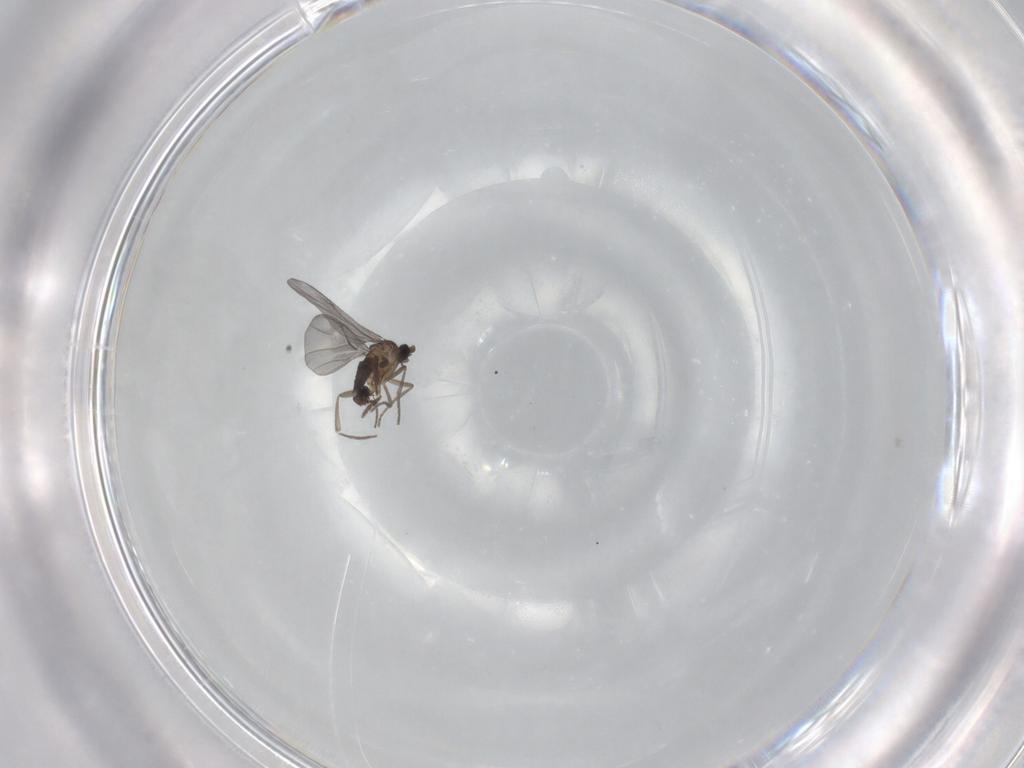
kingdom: Animalia
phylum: Arthropoda
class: Insecta
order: Diptera
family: Phoridae
